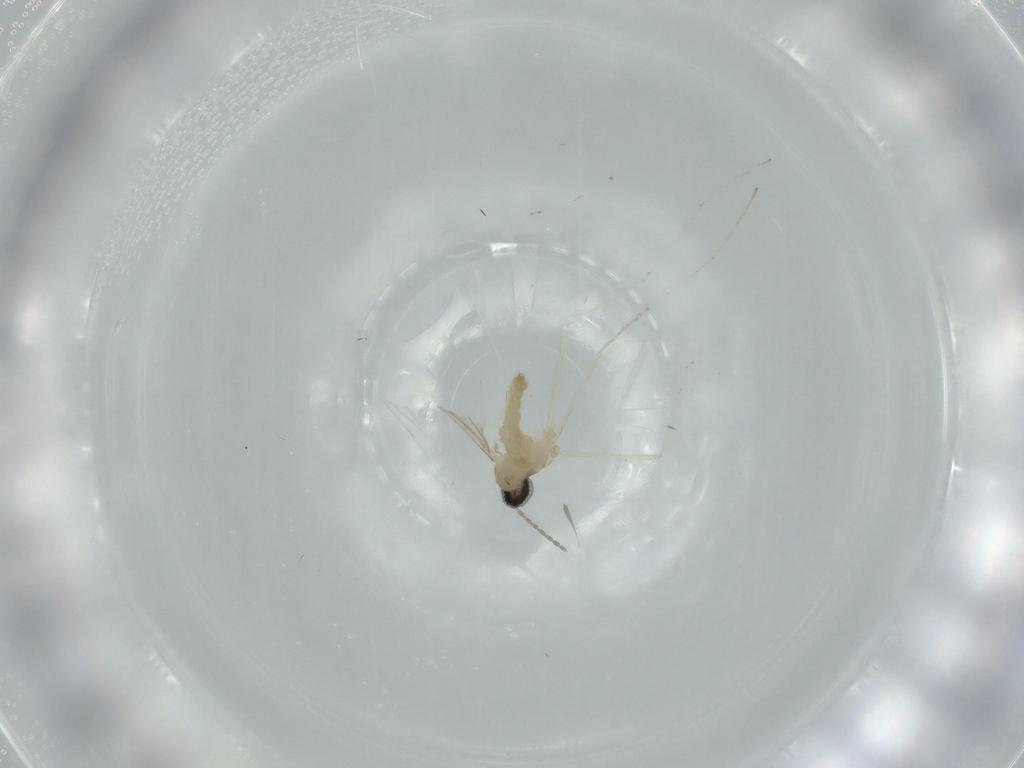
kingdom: Animalia
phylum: Arthropoda
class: Insecta
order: Diptera
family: Cecidomyiidae
